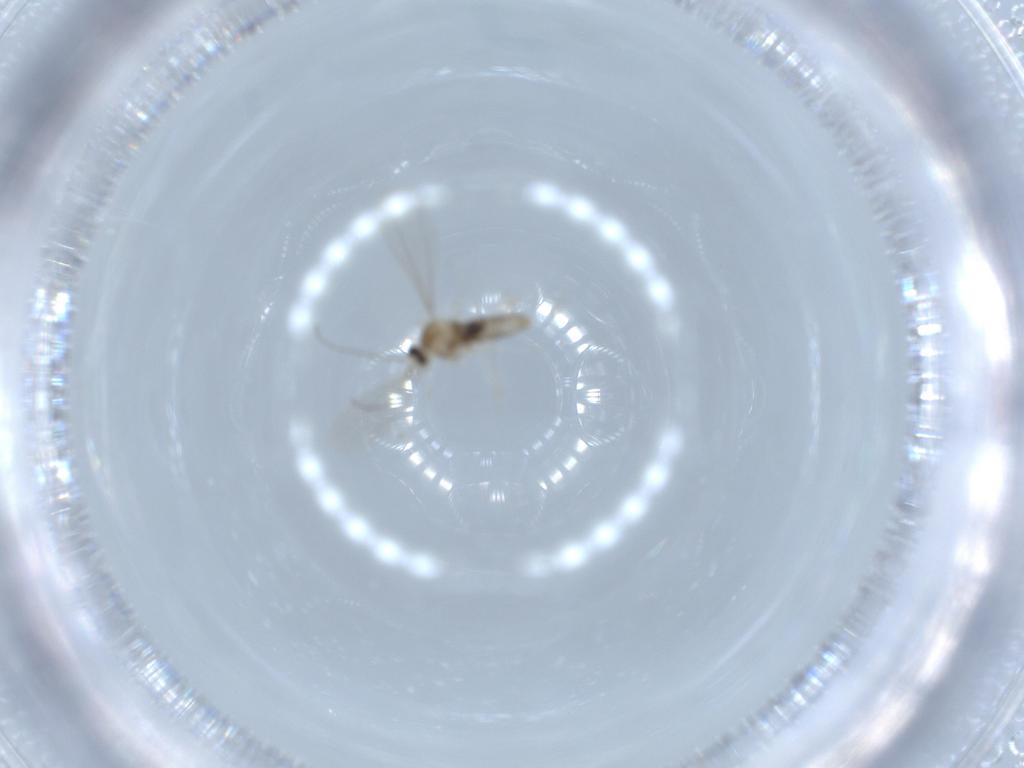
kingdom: Animalia
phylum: Arthropoda
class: Insecta
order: Diptera
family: Cecidomyiidae
